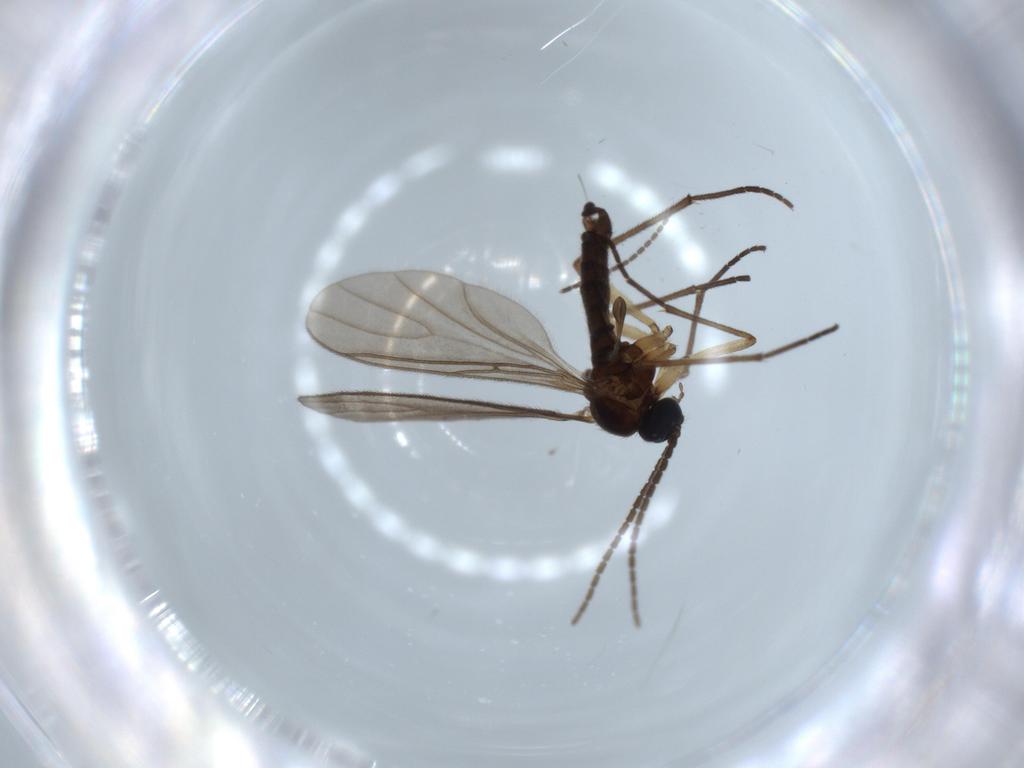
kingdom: Animalia
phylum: Arthropoda
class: Insecta
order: Diptera
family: Sciaridae
